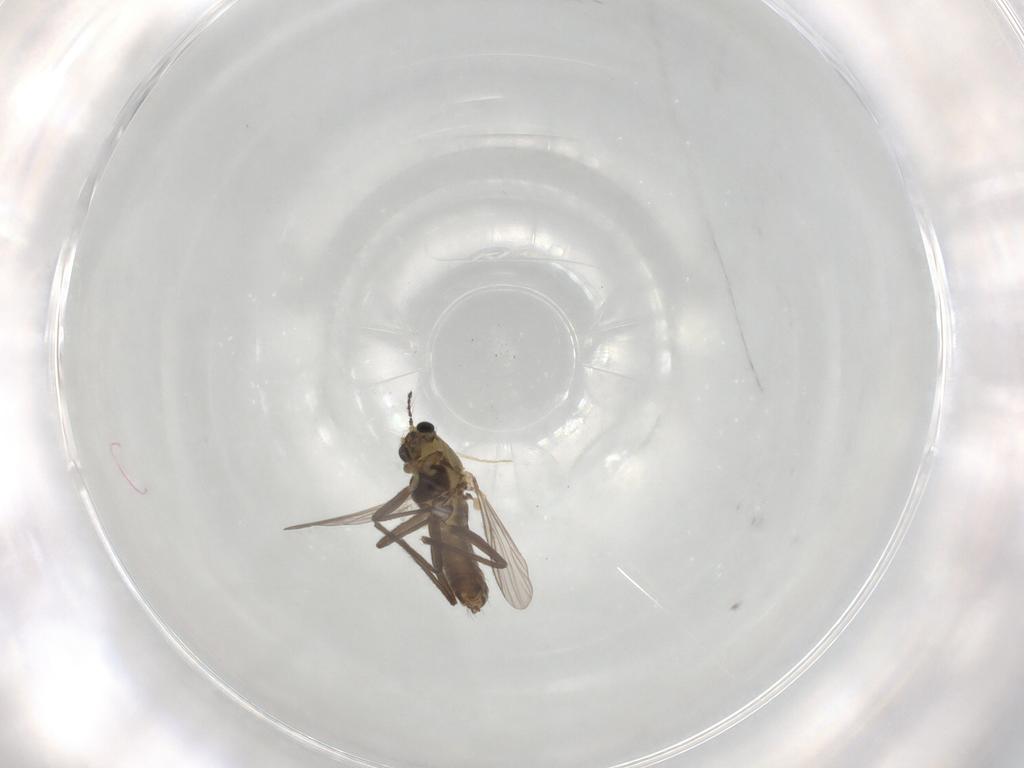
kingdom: Animalia
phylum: Arthropoda
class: Insecta
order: Diptera
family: Chironomidae
